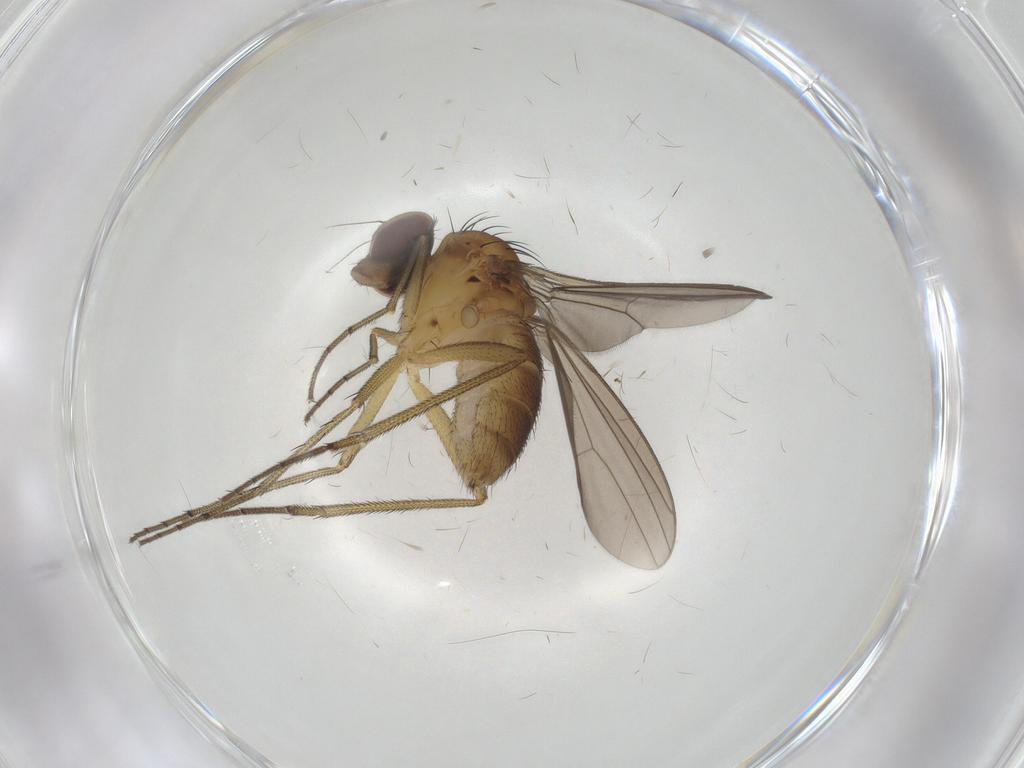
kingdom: Animalia
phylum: Arthropoda
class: Insecta
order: Diptera
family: Dolichopodidae
